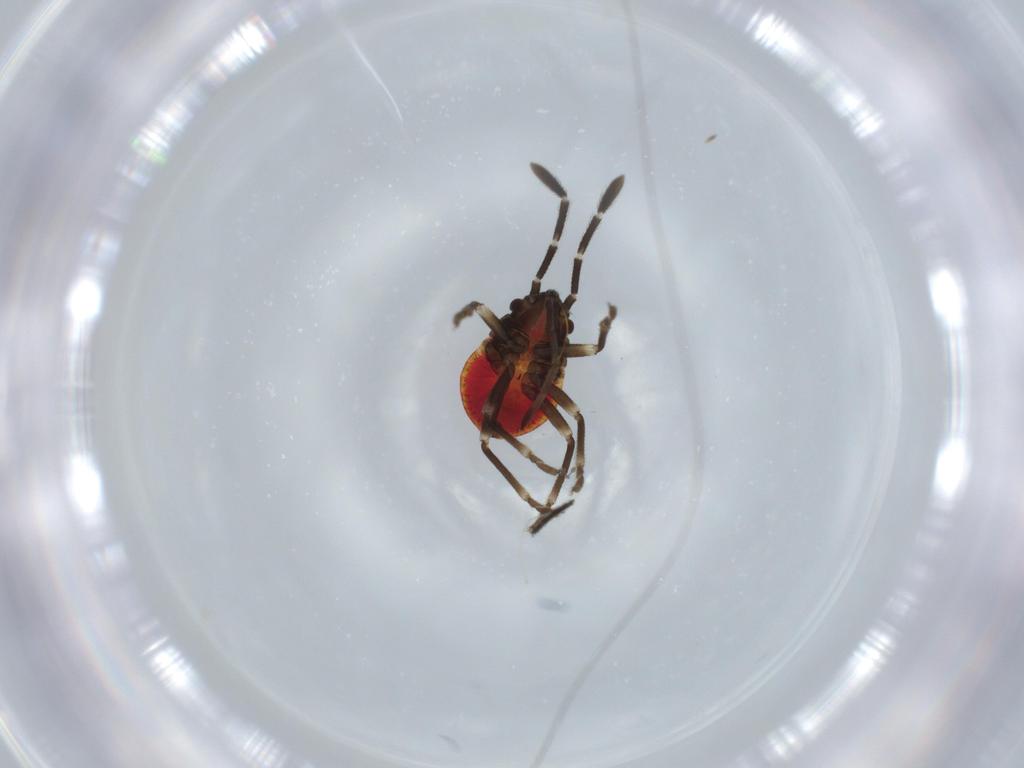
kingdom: Animalia
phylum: Arthropoda
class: Insecta
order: Hemiptera
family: Lygaeidae
